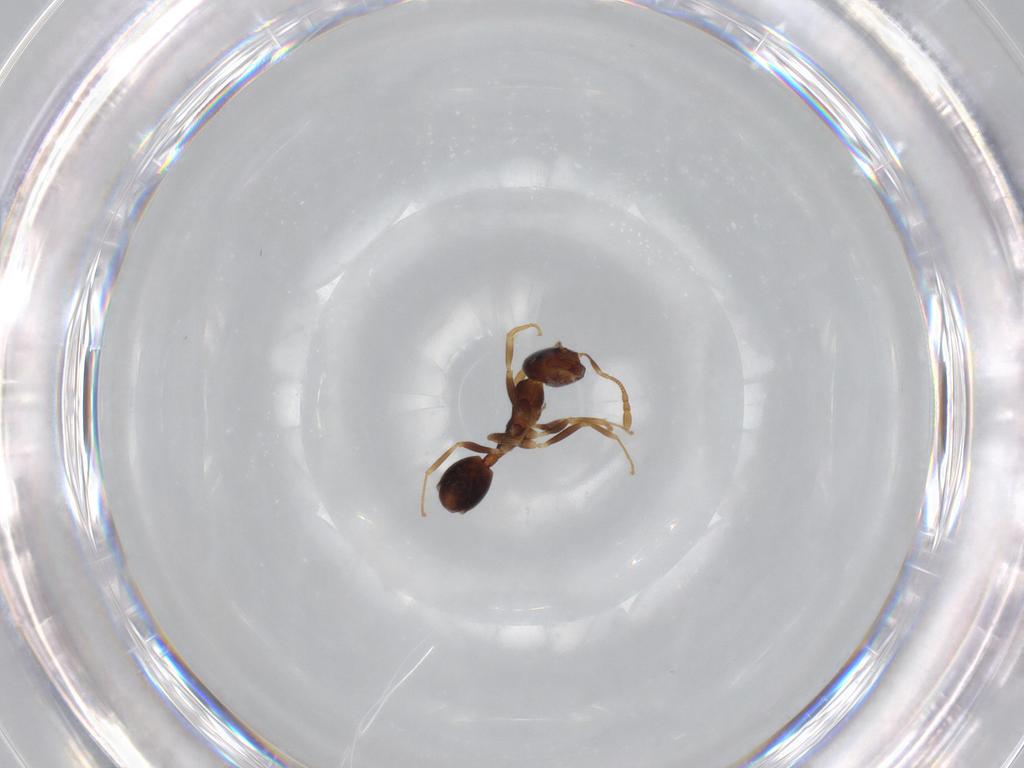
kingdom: Animalia
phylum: Arthropoda
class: Insecta
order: Hymenoptera
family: Formicidae
